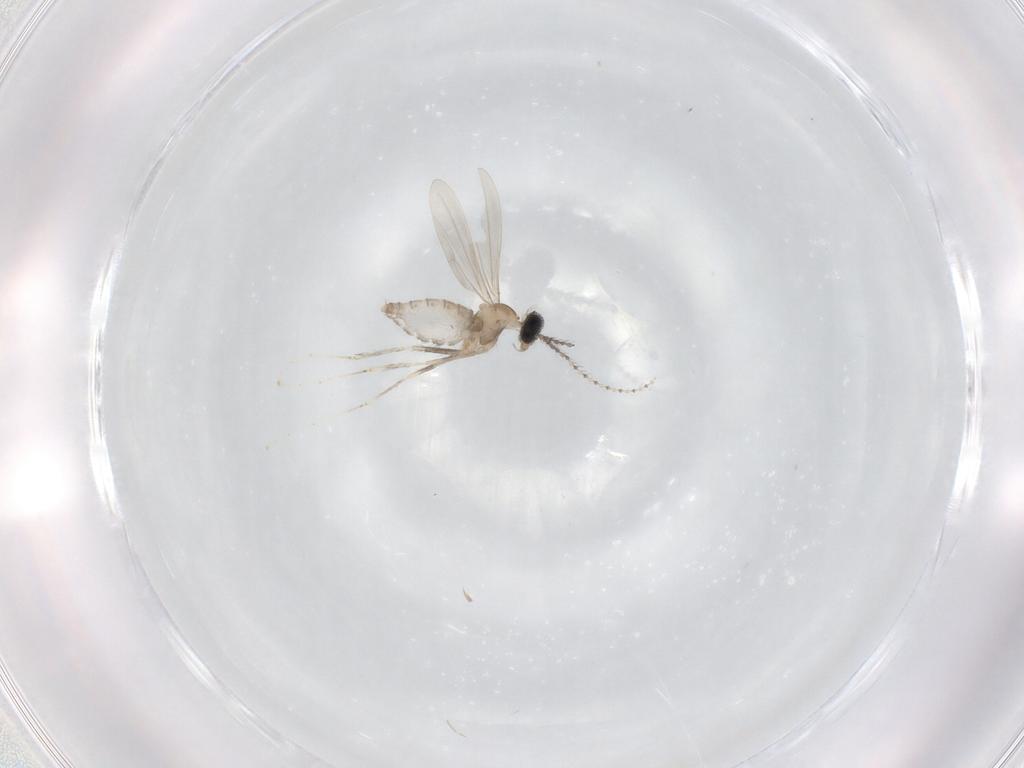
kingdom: Animalia
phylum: Arthropoda
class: Insecta
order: Diptera
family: Cecidomyiidae
